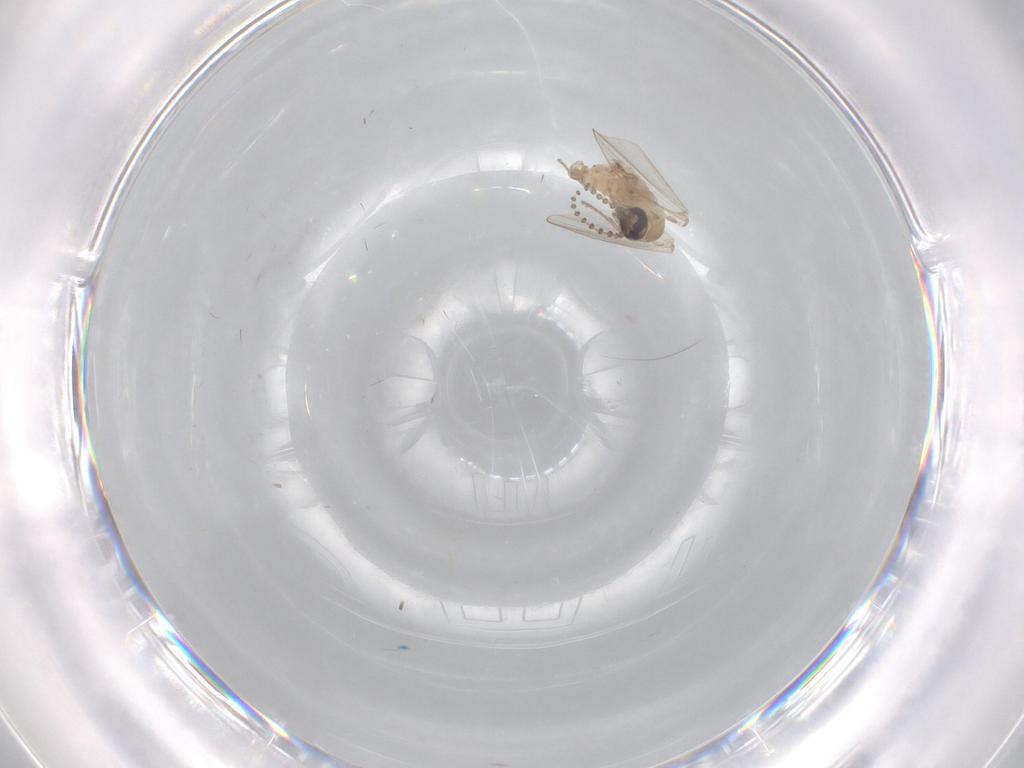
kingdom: Animalia
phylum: Arthropoda
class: Insecta
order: Diptera
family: Psychodidae
